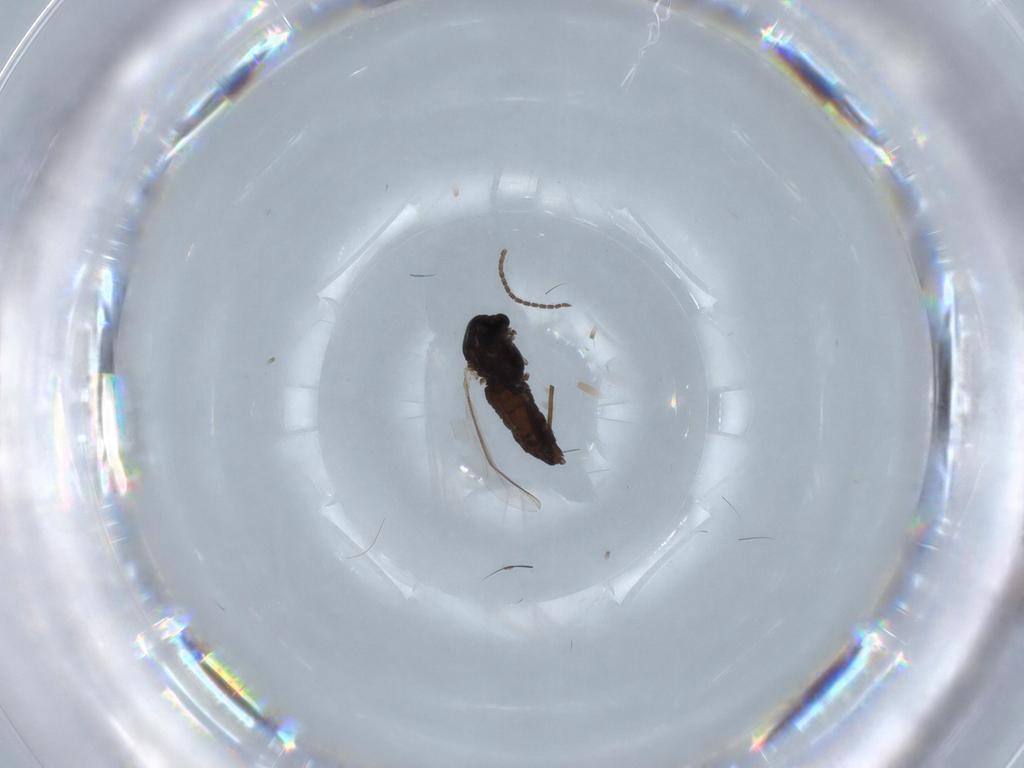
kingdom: Animalia
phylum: Arthropoda
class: Insecta
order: Diptera
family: Chironomidae
